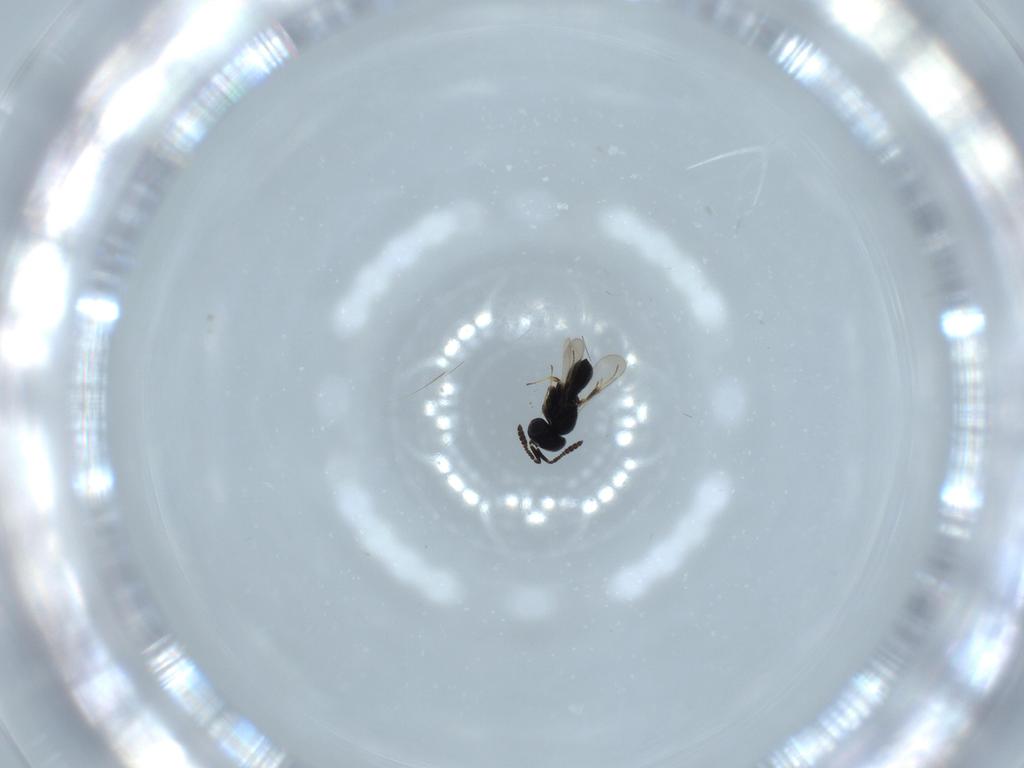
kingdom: Animalia
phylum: Arthropoda
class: Insecta
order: Hymenoptera
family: Scelionidae
